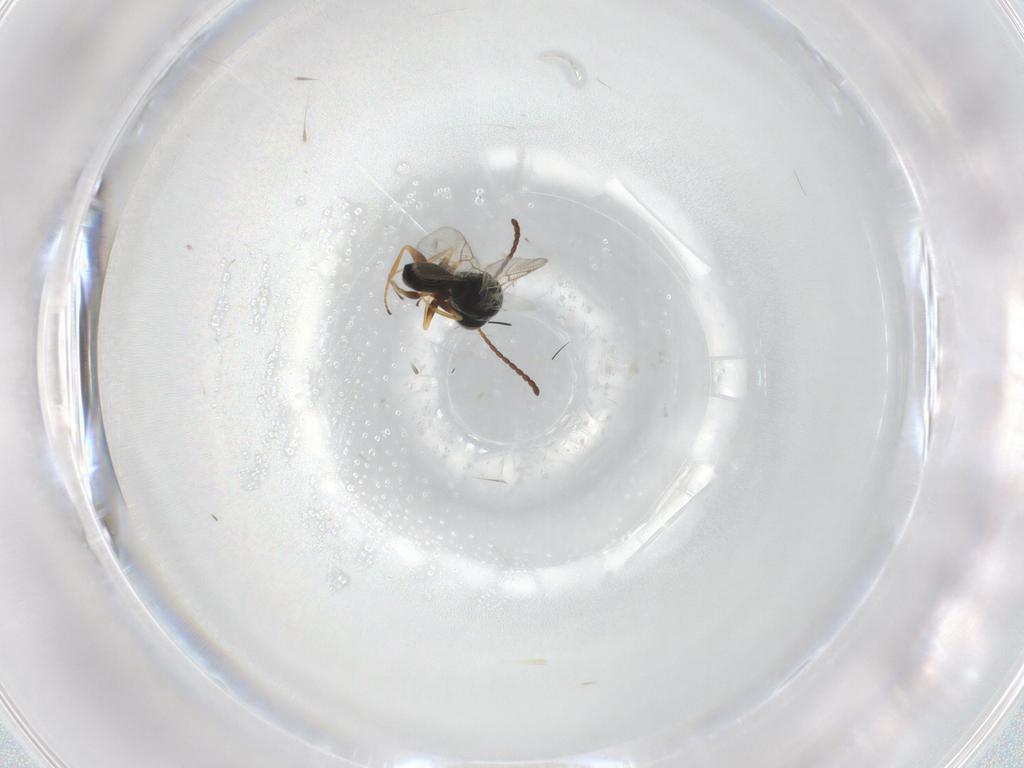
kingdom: Animalia
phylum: Arthropoda
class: Insecta
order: Hymenoptera
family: Figitidae
